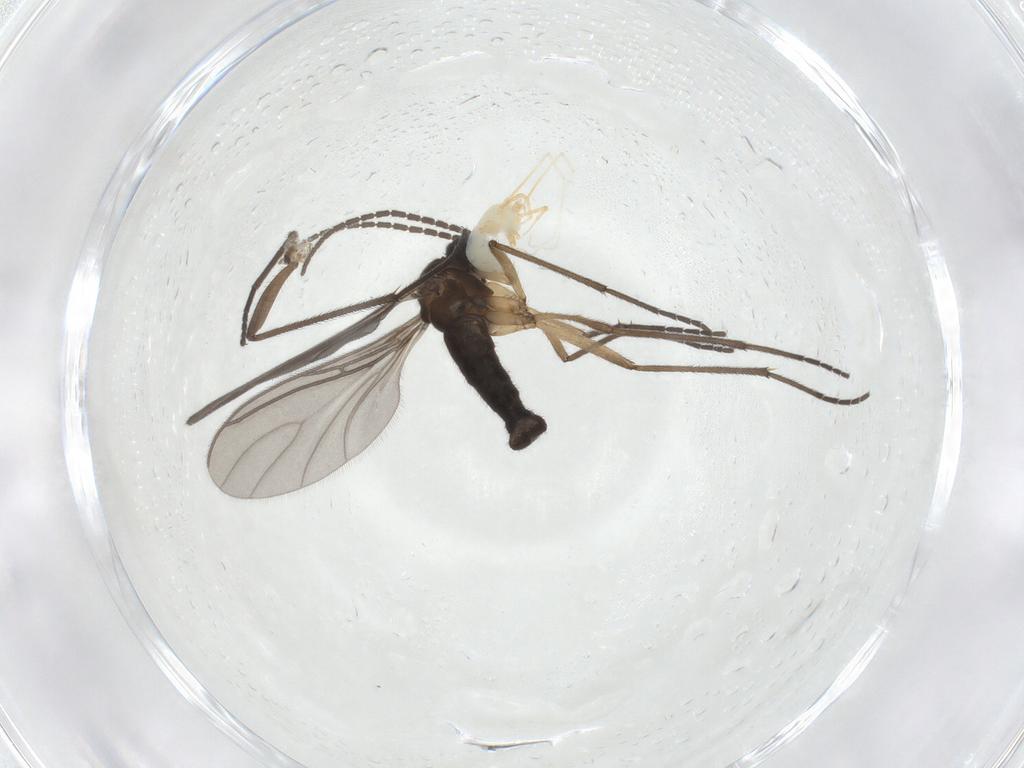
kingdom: Animalia
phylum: Arthropoda
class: Insecta
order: Diptera
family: Sciaridae
